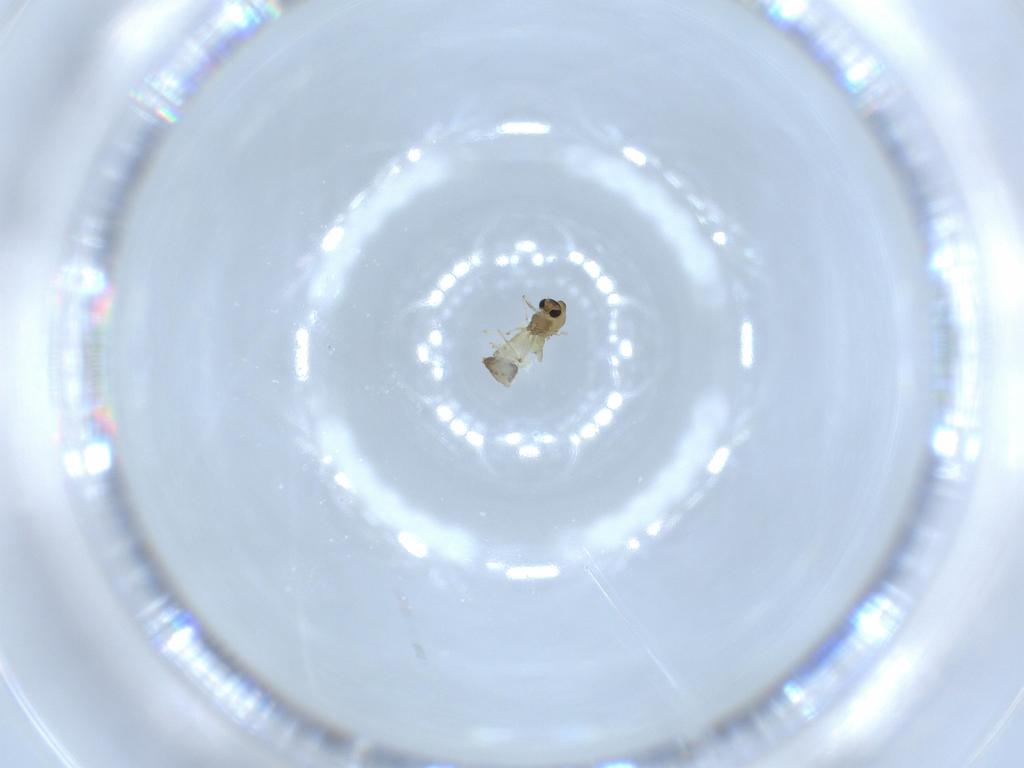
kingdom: Animalia
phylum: Arthropoda
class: Insecta
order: Diptera
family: Chironomidae
